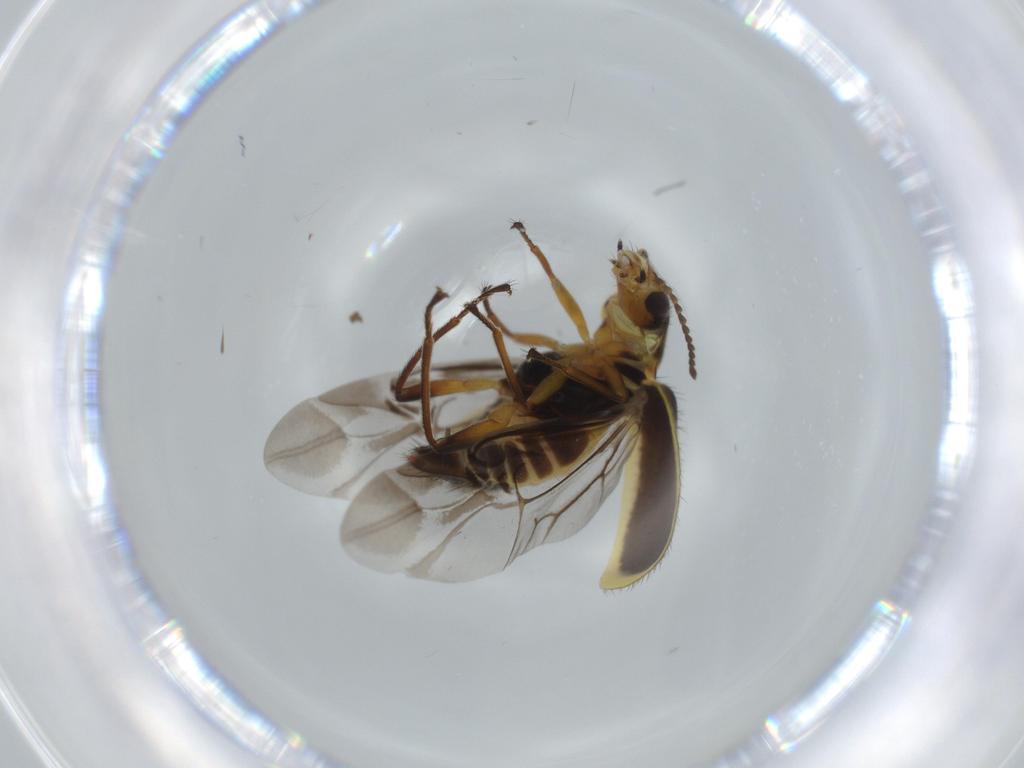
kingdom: Animalia
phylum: Arthropoda
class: Insecta
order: Coleoptera
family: Melyridae
